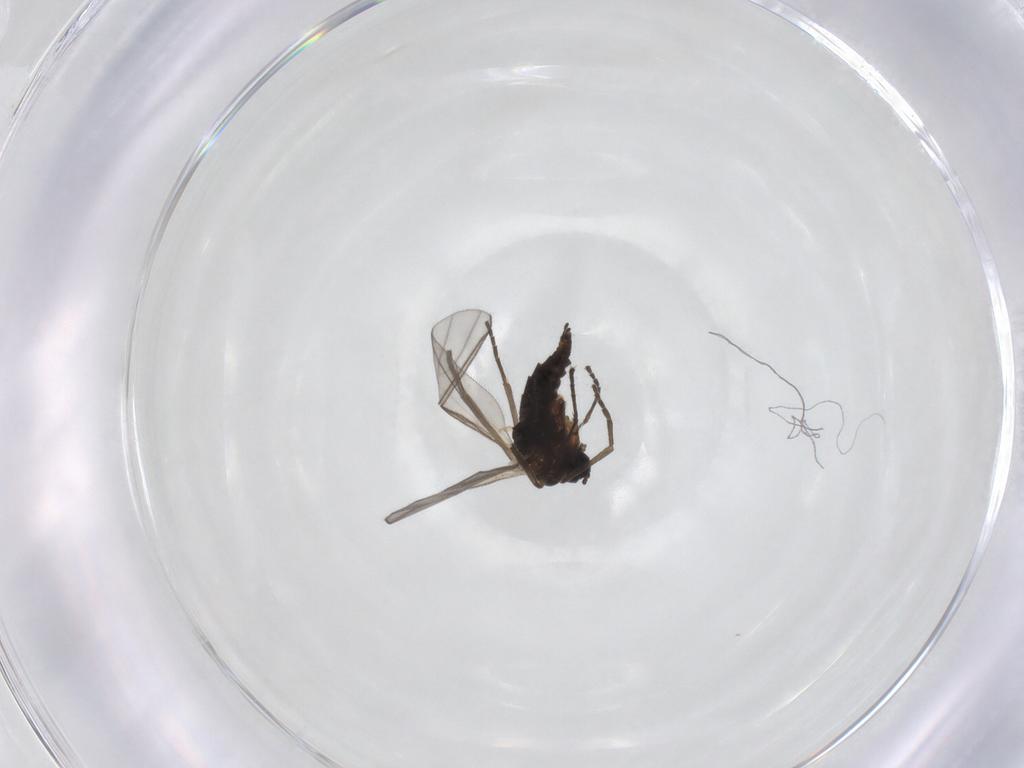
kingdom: Animalia
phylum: Arthropoda
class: Insecta
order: Diptera
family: Sciaridae
